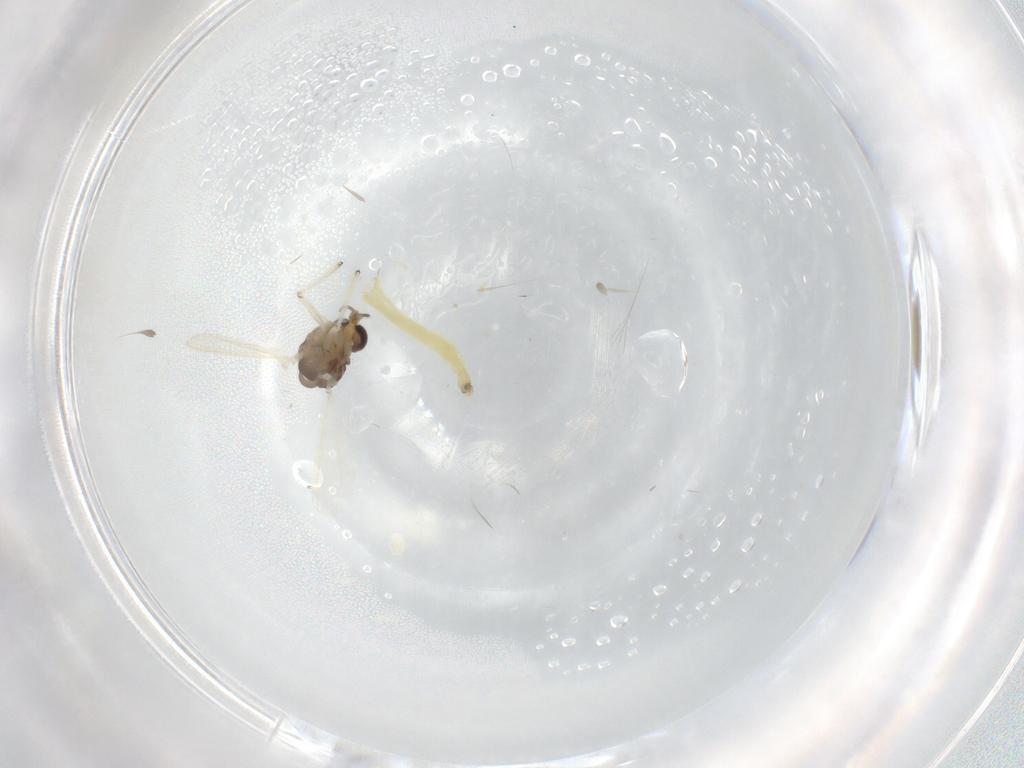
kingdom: Animalia
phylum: Arthropoda
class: Insecta
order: Diptera
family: Chironomidae
